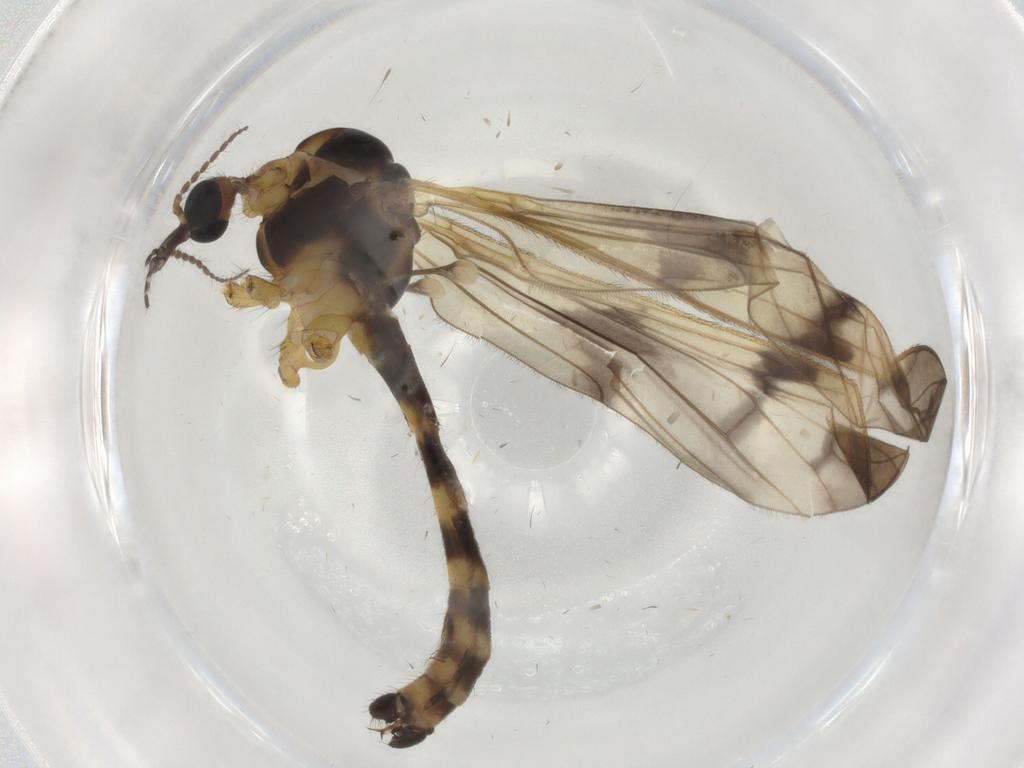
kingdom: Animalia
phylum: Arthropoda
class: Insecta
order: Diptera
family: Limoniidae
